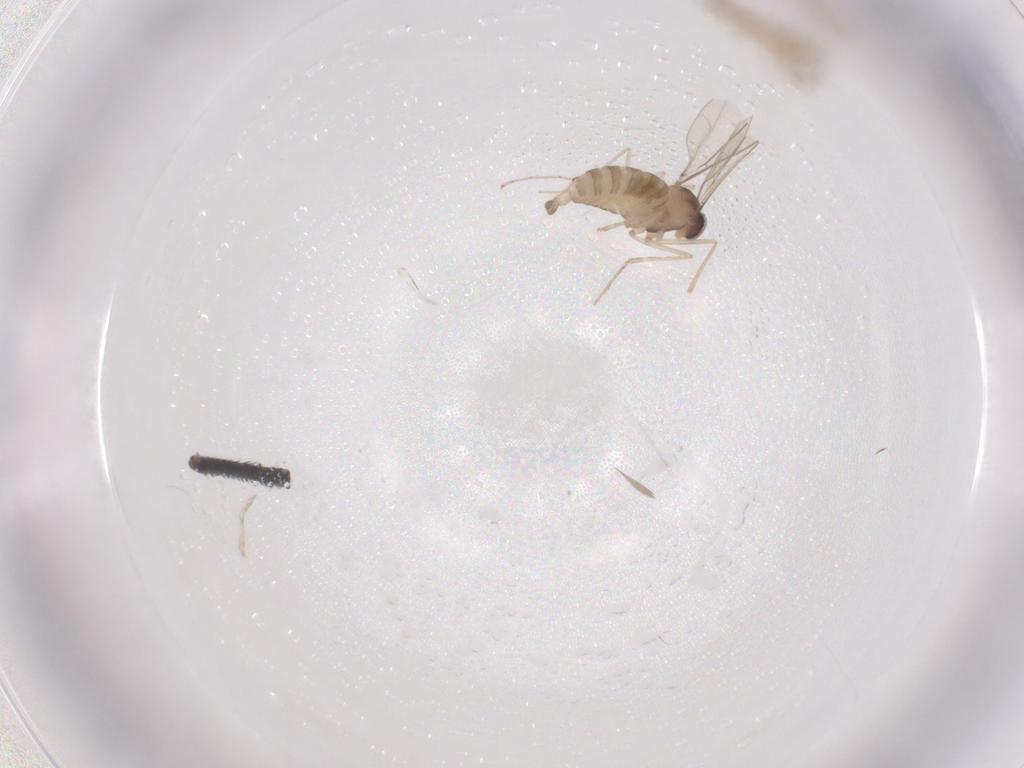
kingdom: Animalia
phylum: Arthropoda
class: Insecta
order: Diptera
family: Cecidomyiidae
